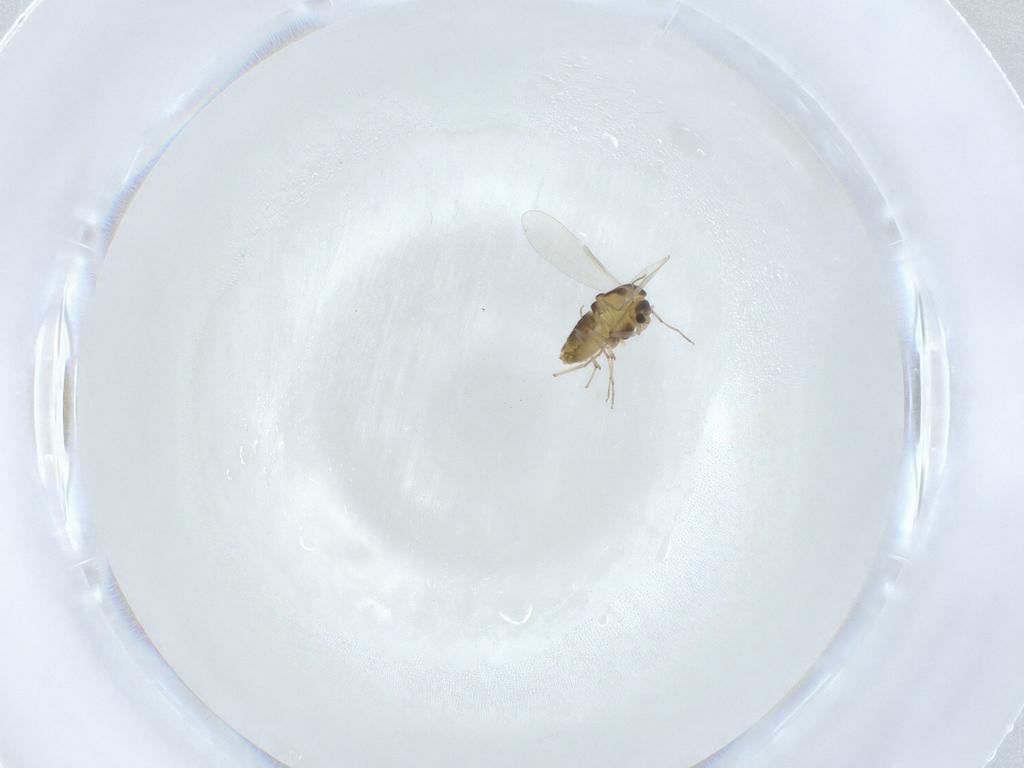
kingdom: Animalia
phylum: Arthropoda
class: Insecta
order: Diptera
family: Chironomidae
